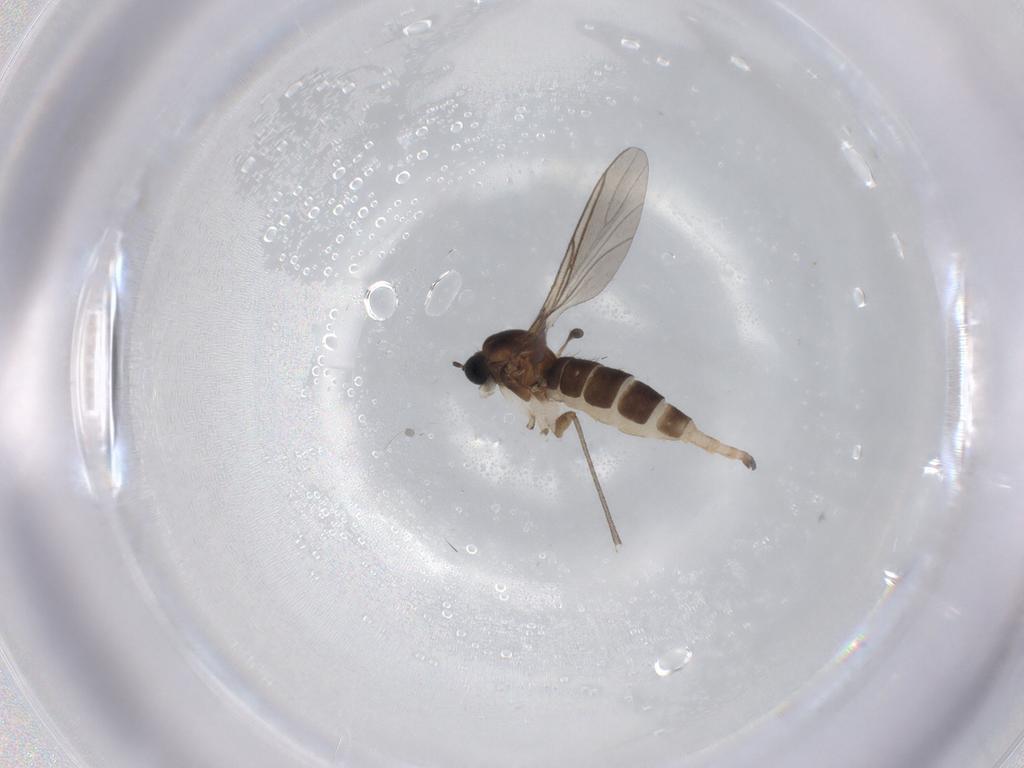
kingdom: Animalia
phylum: Arthropoda
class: Insecta
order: Diptera
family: Sciaridae
